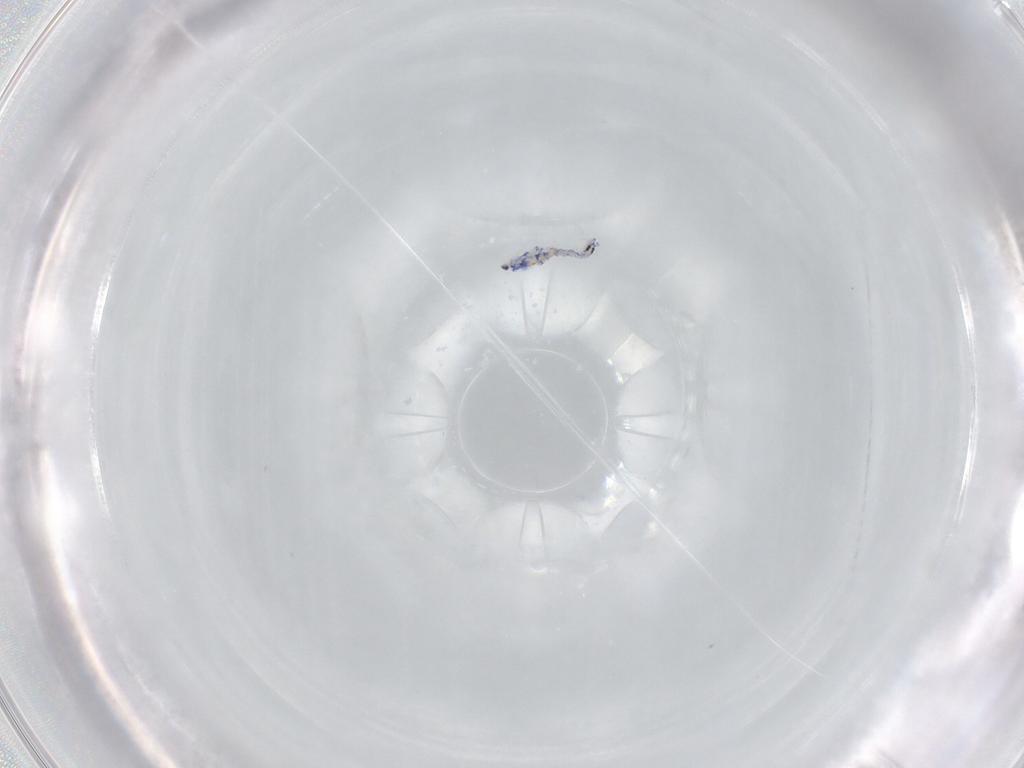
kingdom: Animalia
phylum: Arthropoda
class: Collembola
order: Entomobryomorpha
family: Entomobryidae
